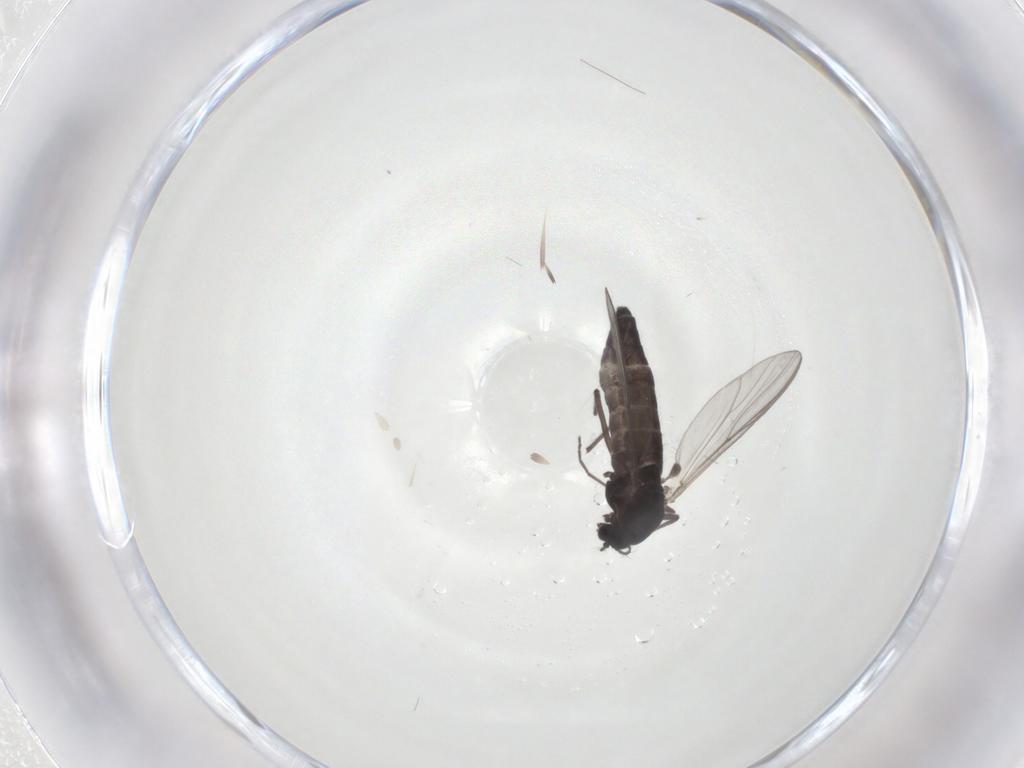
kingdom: Animalia
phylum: Arthropoda
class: Insecta
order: Diptera
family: Chironomidae
